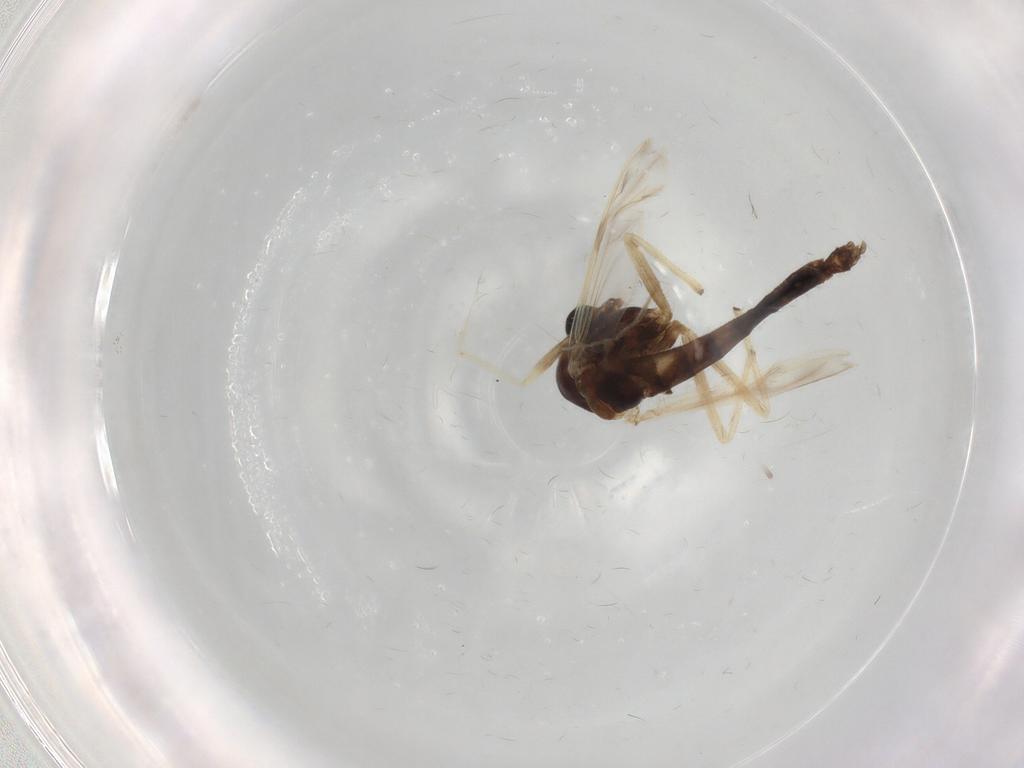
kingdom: Animalia
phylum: Arthropoda
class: Insecta
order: Diptera
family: Chironomidae
